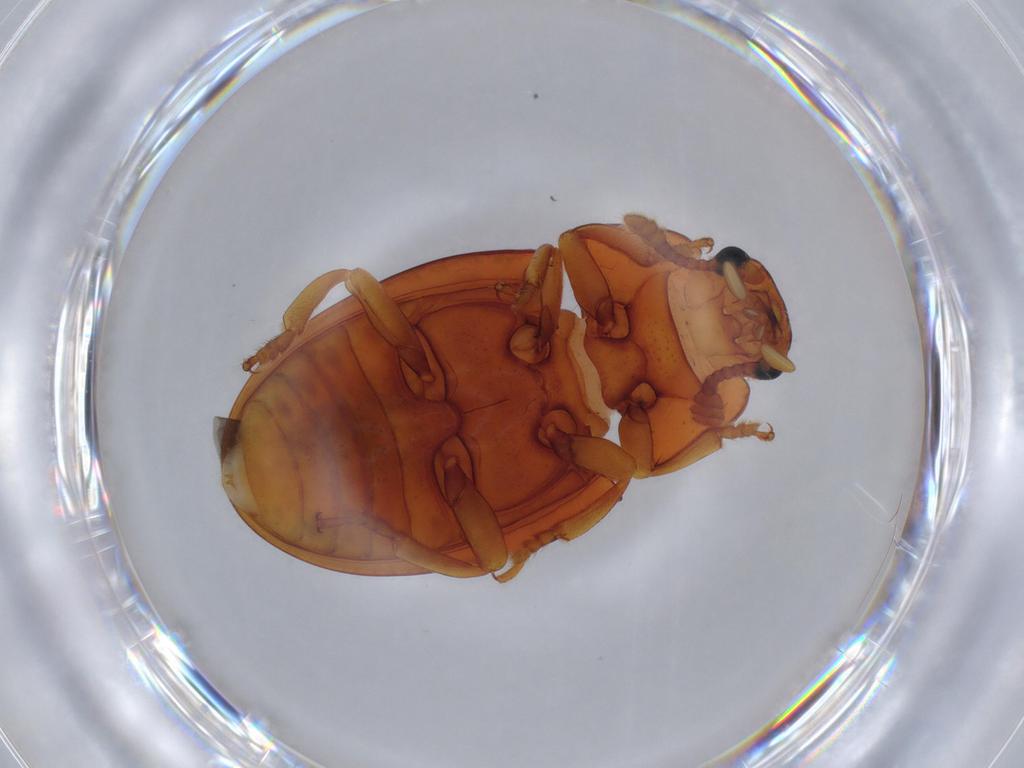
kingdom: Animalia
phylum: Arthropoda
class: Insecta
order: Coleoptera
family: Erotylidae
